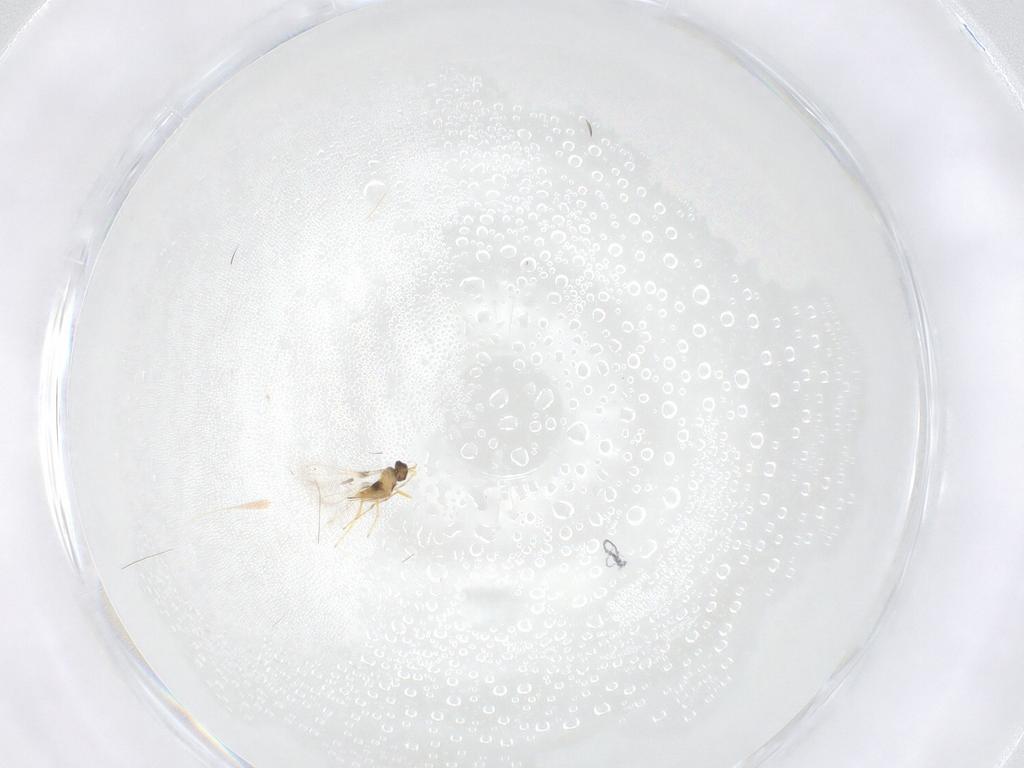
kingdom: Animalia
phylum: Arthropoda
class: Insecta
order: Hymenoptera
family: Mymaridae
